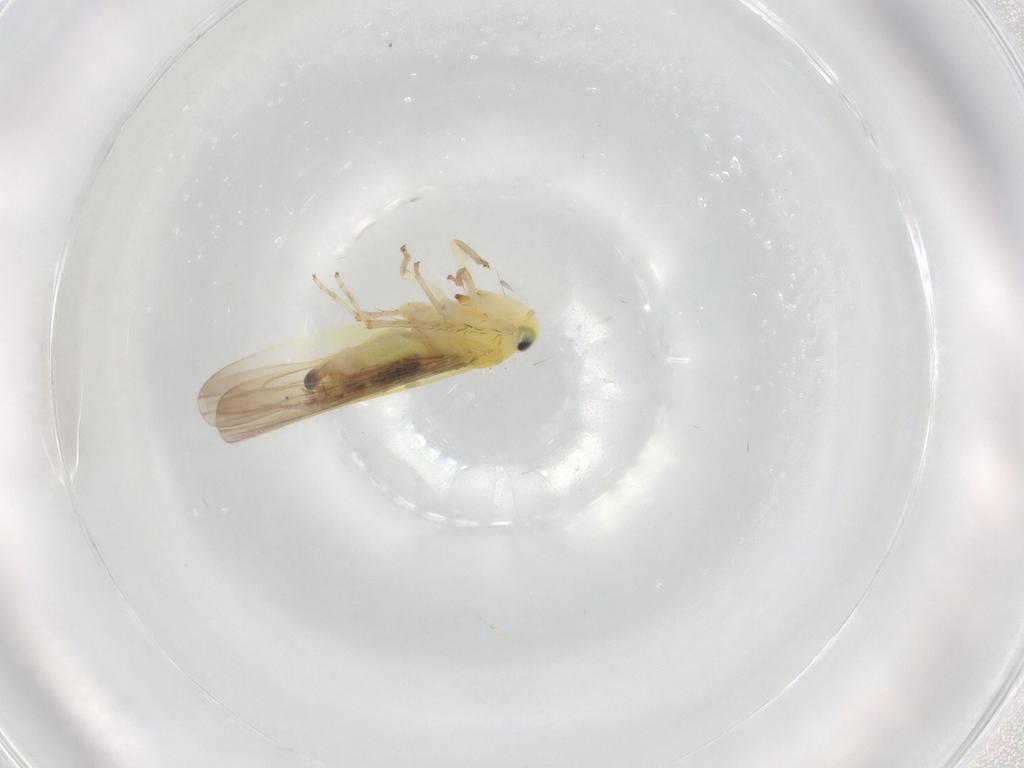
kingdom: Animalia
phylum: Arthropoda
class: Insecta
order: Hemiptera
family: Aleyrodidae
